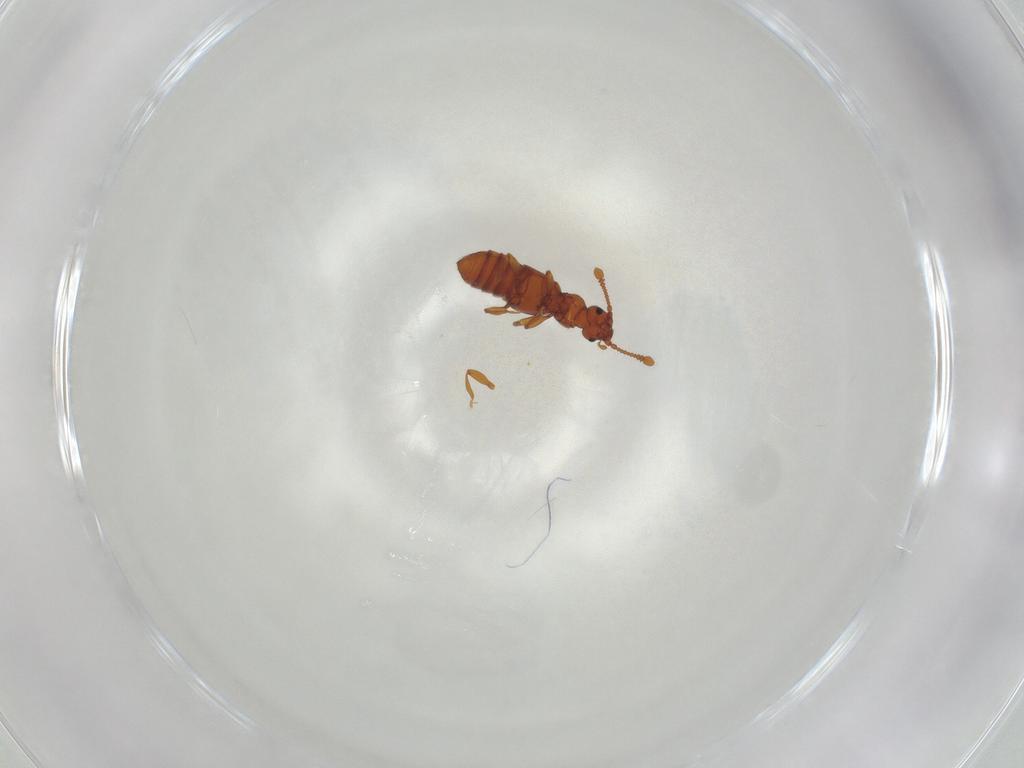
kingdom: Animalia
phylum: Arthropoda
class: Insecta
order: Coleoptera
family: Staphylinidae
